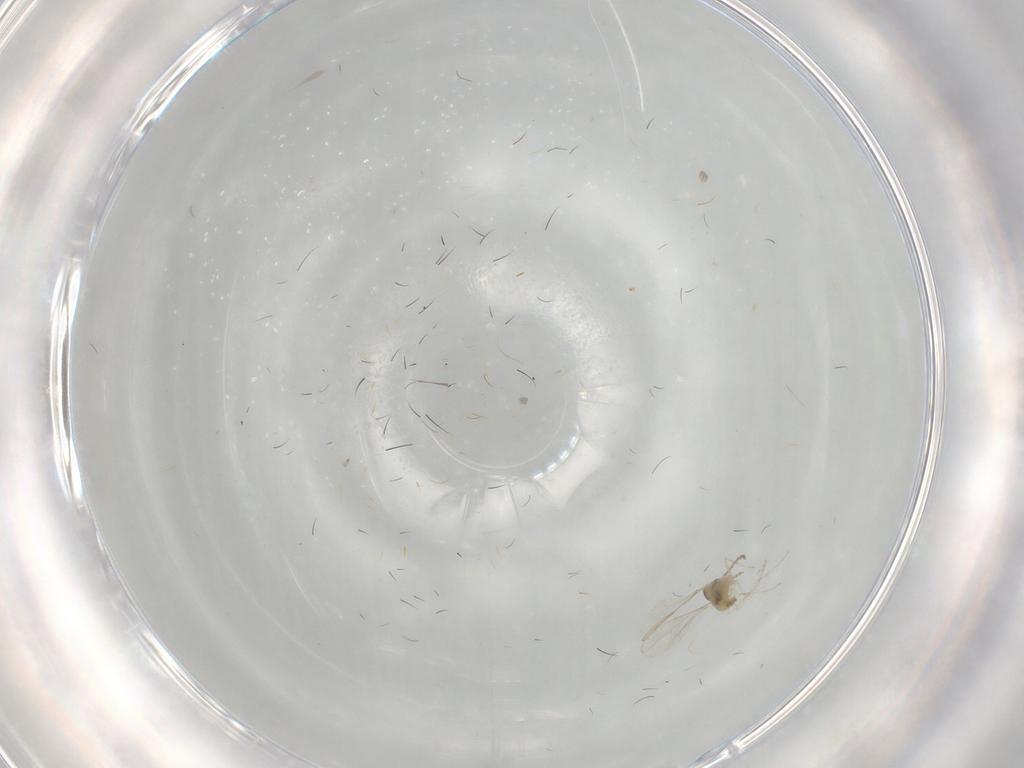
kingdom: Animalia
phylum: Arthropoda
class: Insecta
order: Diptera
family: Cecidomyiidae
